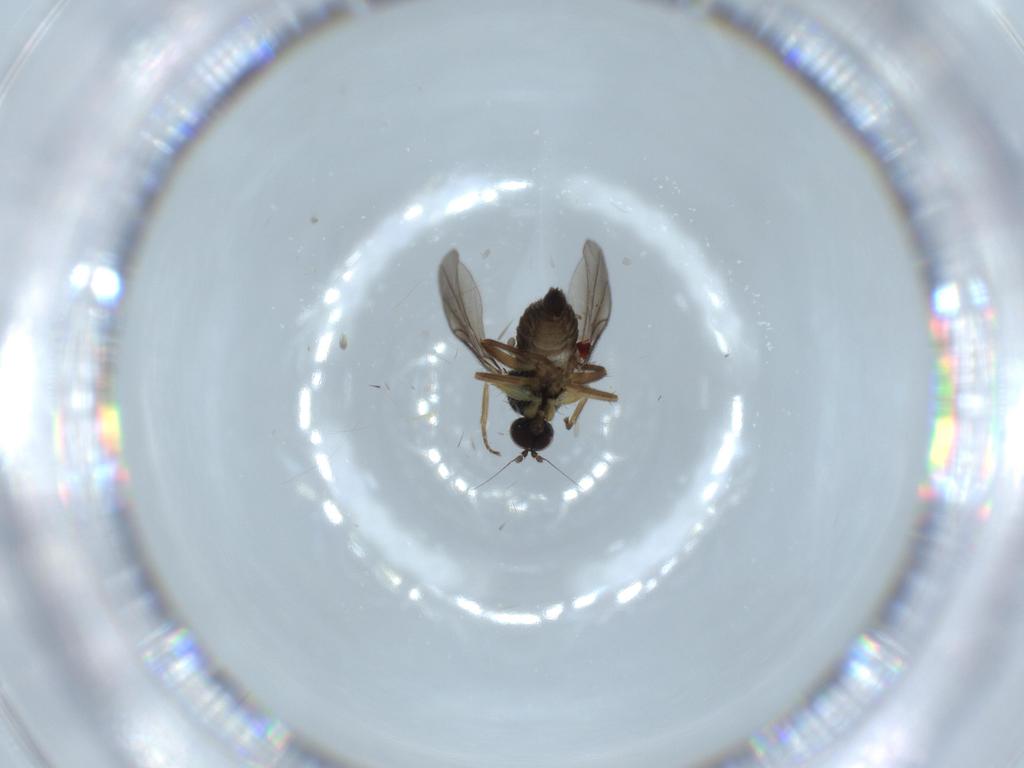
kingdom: Animalia
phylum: Arthropoda
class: Insecta
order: Diptera
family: Hybotidae
